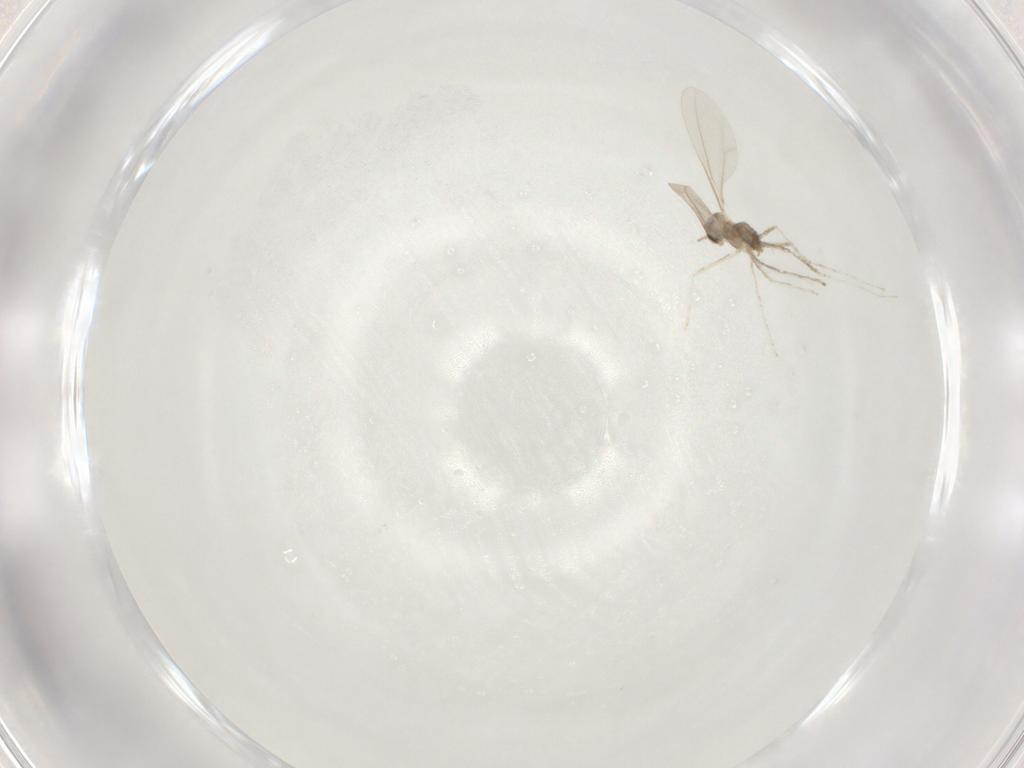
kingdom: Animalia
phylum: Arthropoda
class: Insecta
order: Diptera
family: Cecidomyiidae
